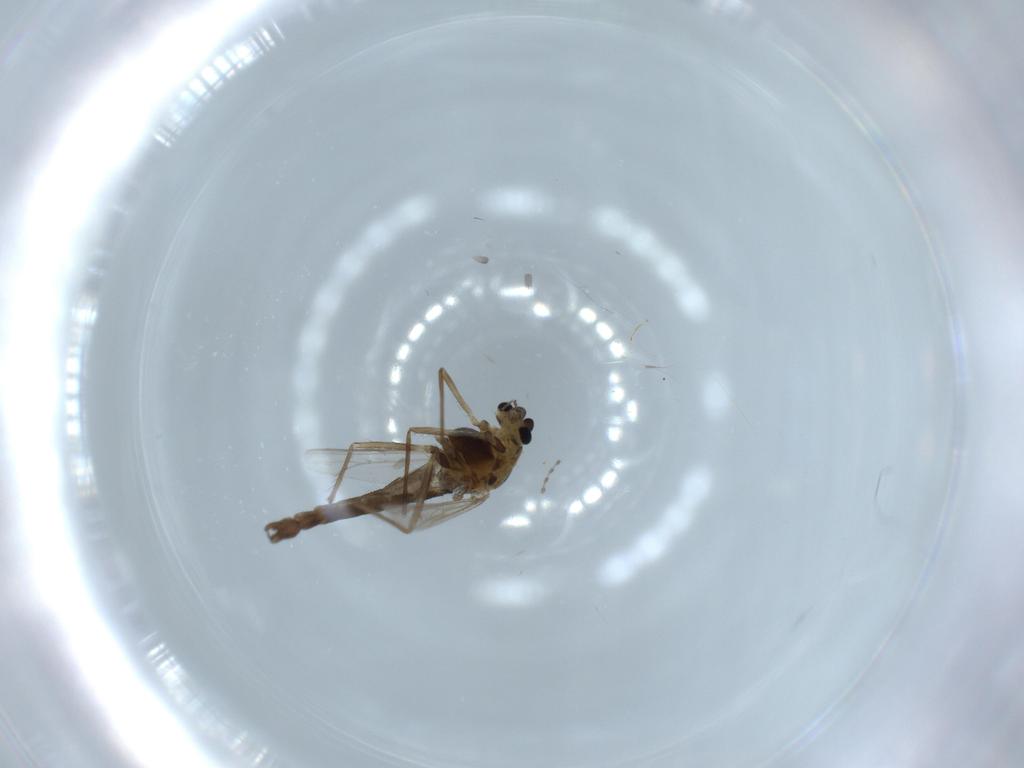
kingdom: Animalia
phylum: Arthropoda
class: Insecta
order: Diptera
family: Chironomidae
